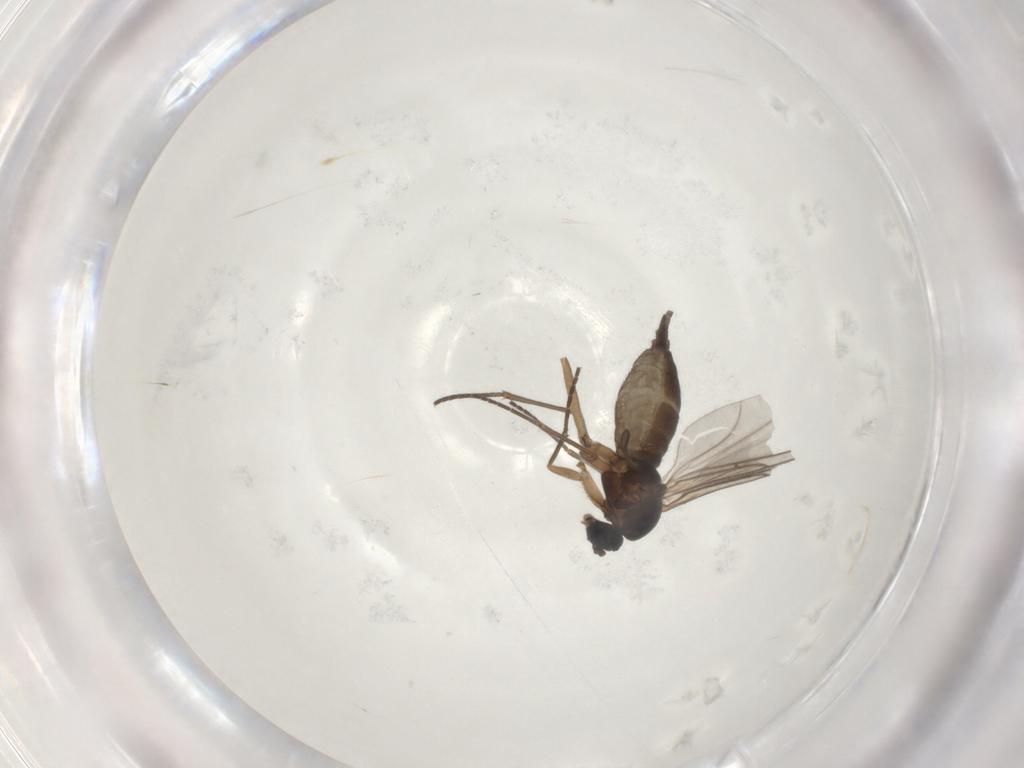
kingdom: Animalia
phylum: Arthropoda
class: Insecta
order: Diptera
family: Sciaridae
